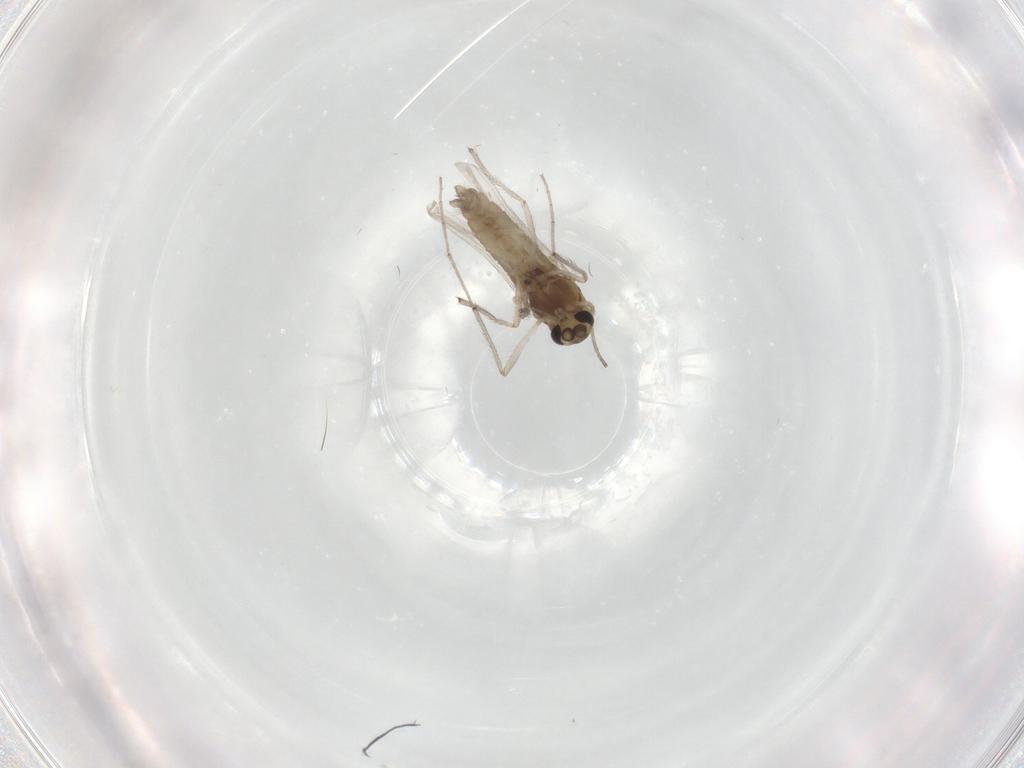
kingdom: Animalia
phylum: Arthropoda
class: Insecta
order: Diptera
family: Chironomidae
